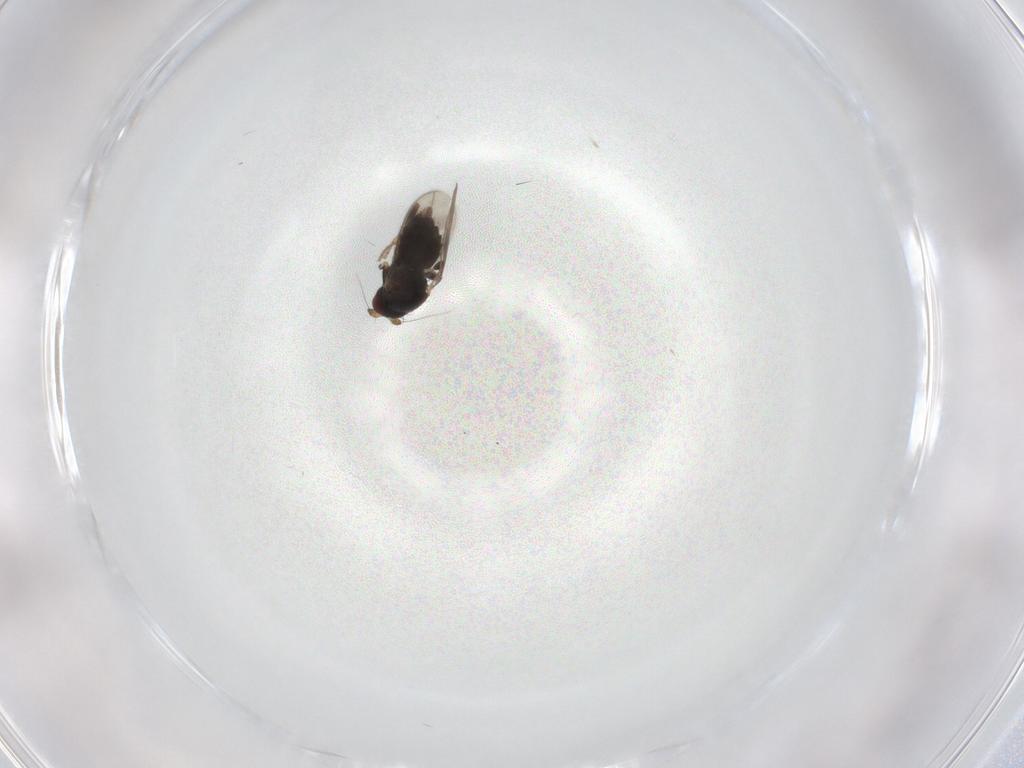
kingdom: Animalia
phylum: Arthropoda
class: Insecta
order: Diptera
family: Sphaeroceridae
